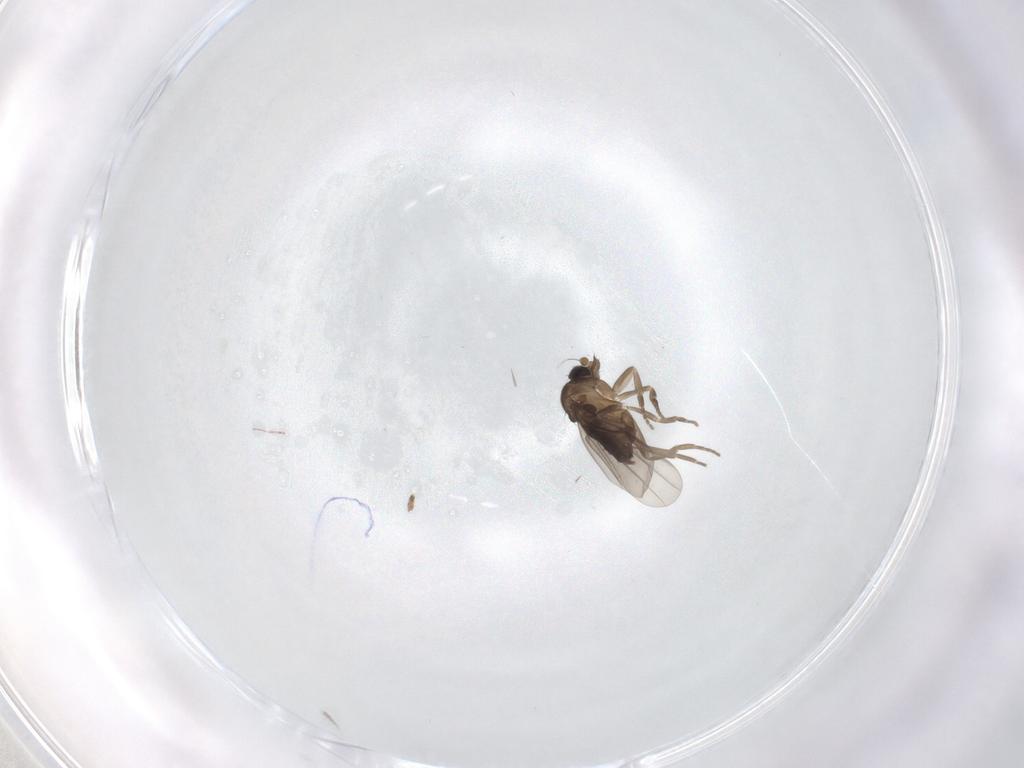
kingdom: Animalia
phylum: Arthropoda
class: Insecta
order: Diptera
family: Phoridae
